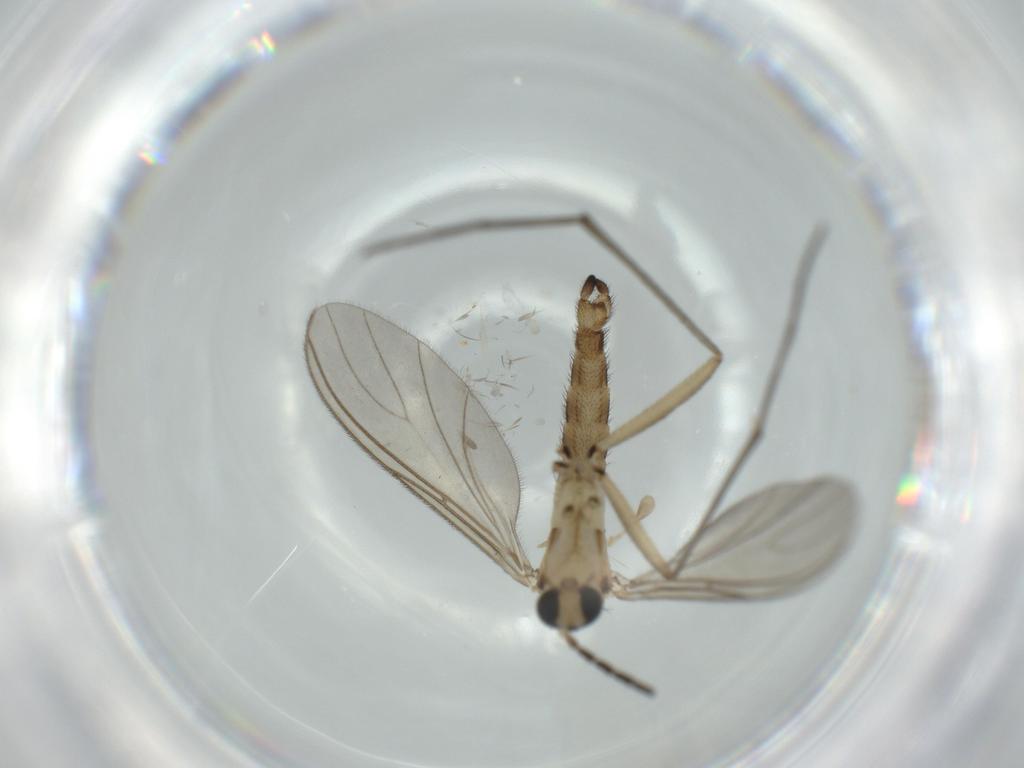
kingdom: Animalia
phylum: Arthropoda
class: Insecta
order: Diptera
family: Sciaridae
